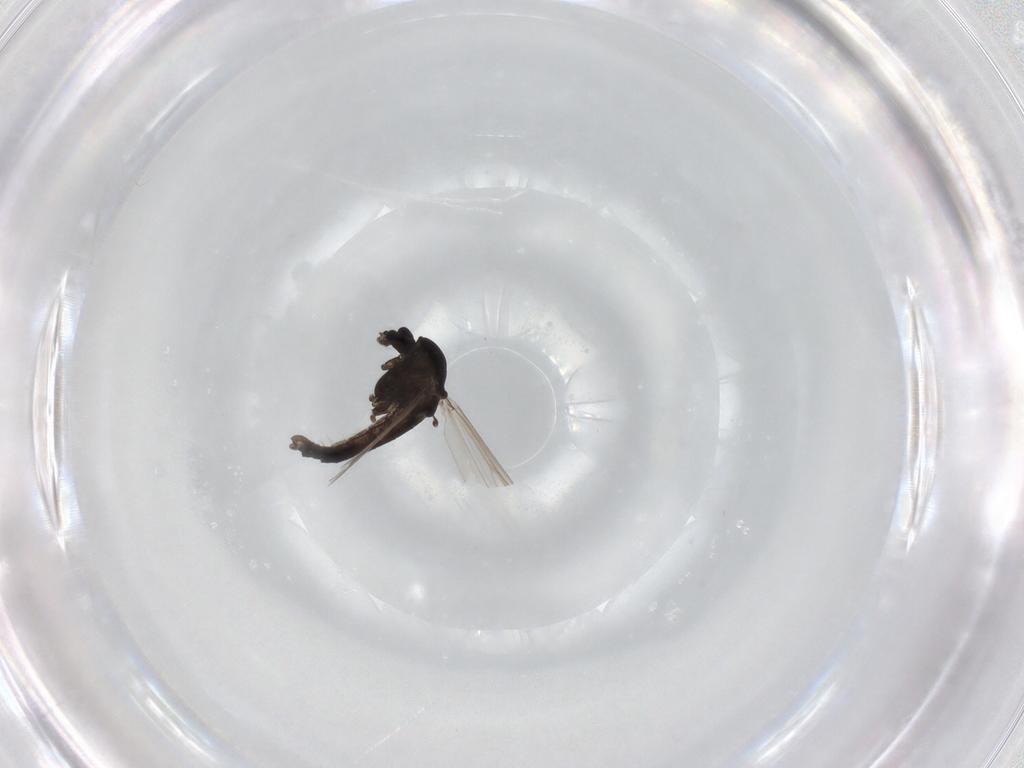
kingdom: Animalia
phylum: Arthropoda
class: Insecta
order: Diptera
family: Chironomidae
